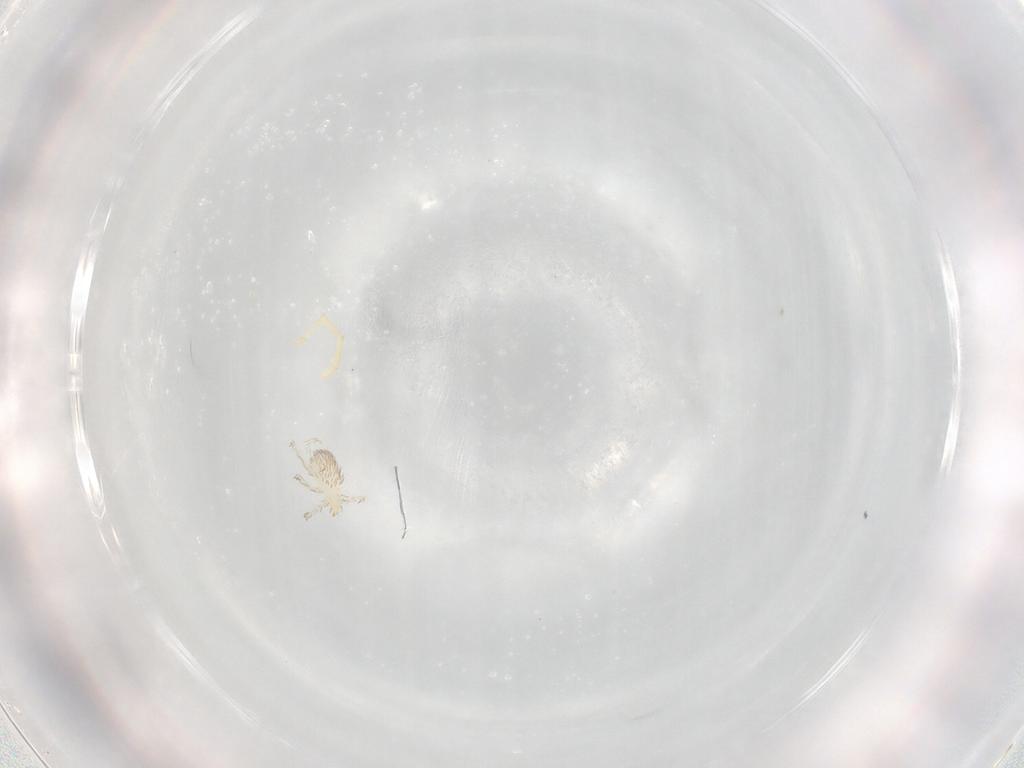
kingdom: Animalia
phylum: Arthropoda
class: Arachnida
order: Trombidiformes
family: Erythraeidae
